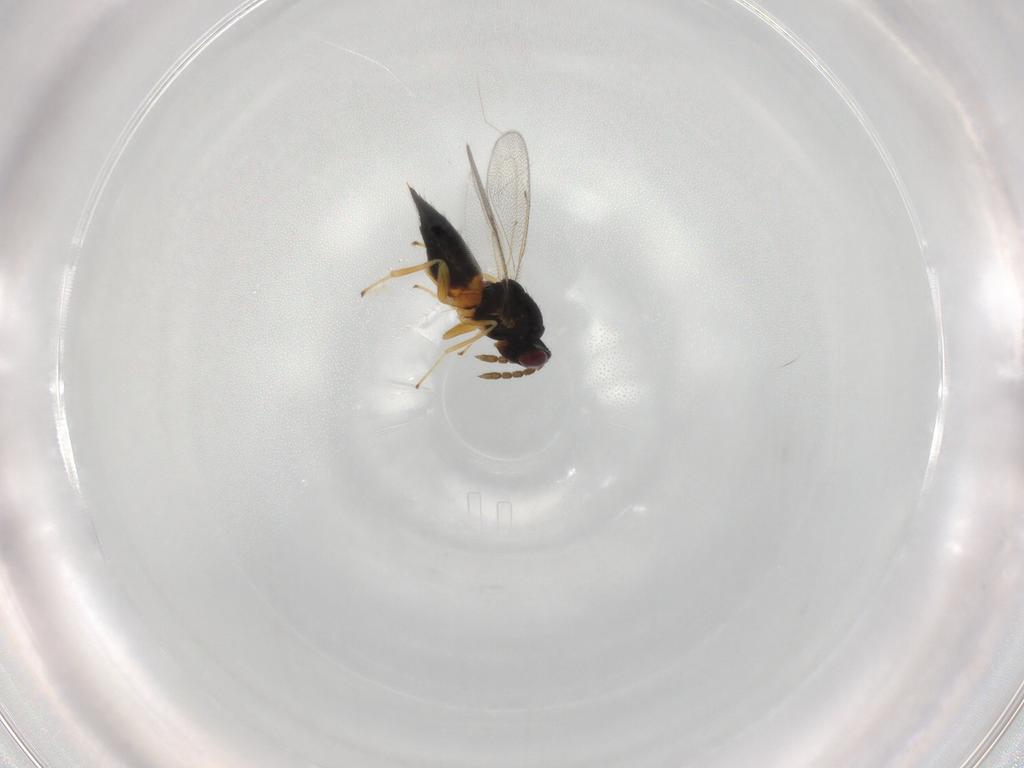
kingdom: Animalia
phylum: Arthropoda
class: Insecta
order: Hymenoptera
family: Eulophidae
